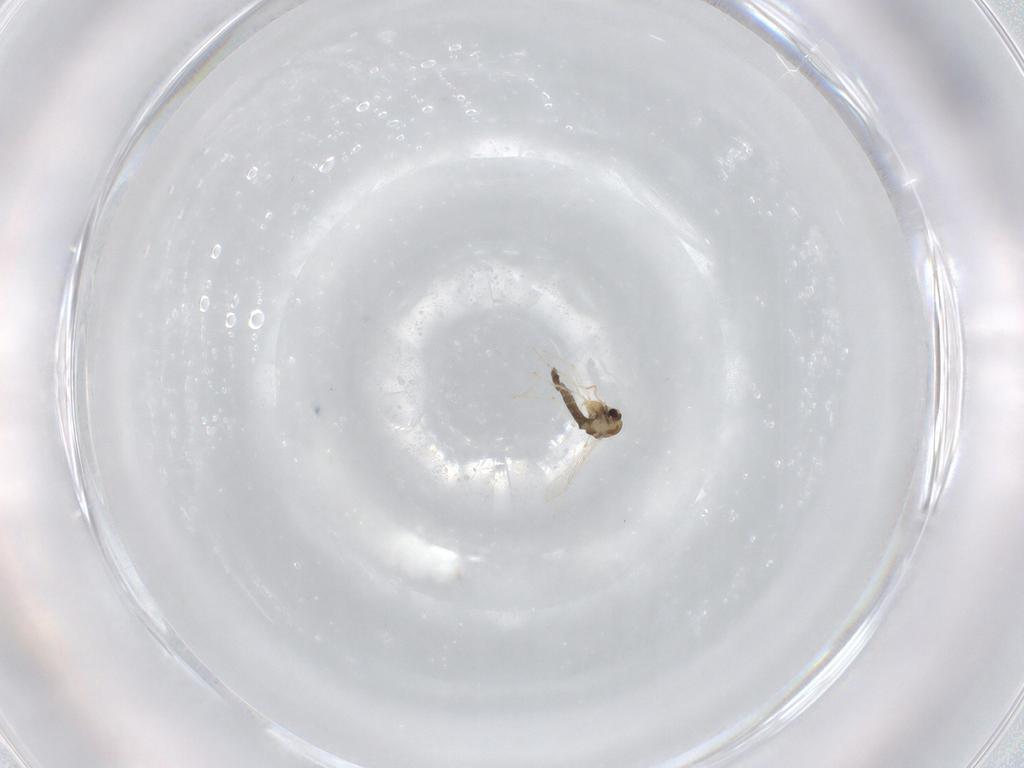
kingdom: Animalia
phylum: Arthropoda
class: Insecta
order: Diptera
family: Chironomidae
